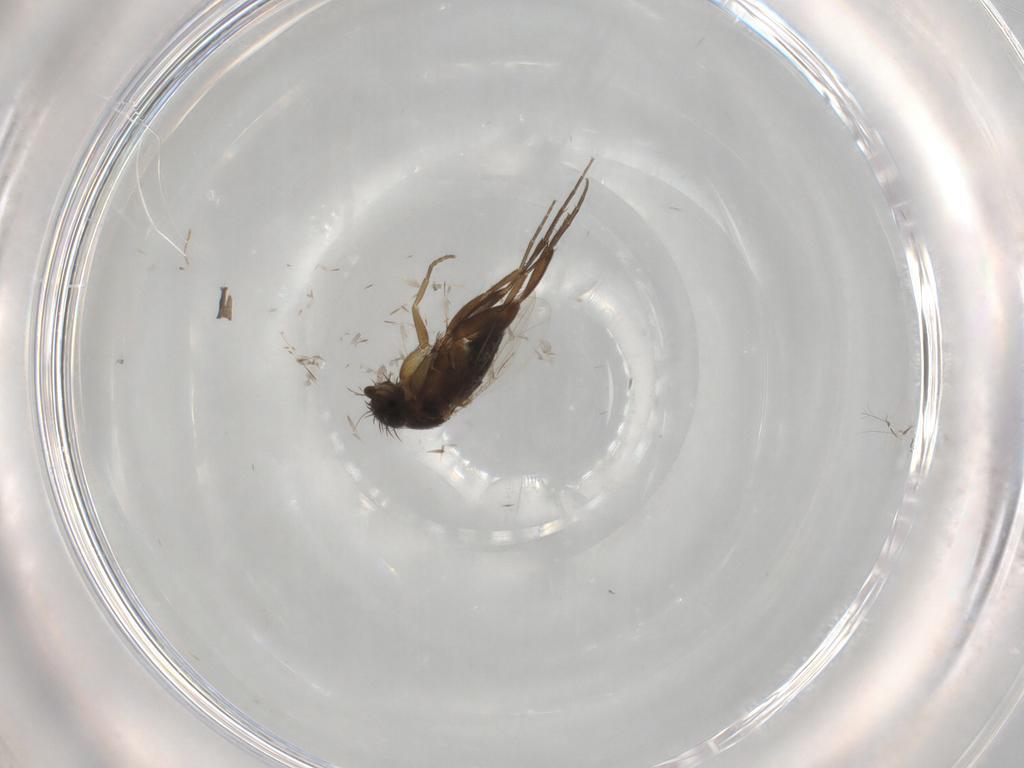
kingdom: Animalia
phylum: Arthropoda
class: Insecta
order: Diptera
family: Phoridae
